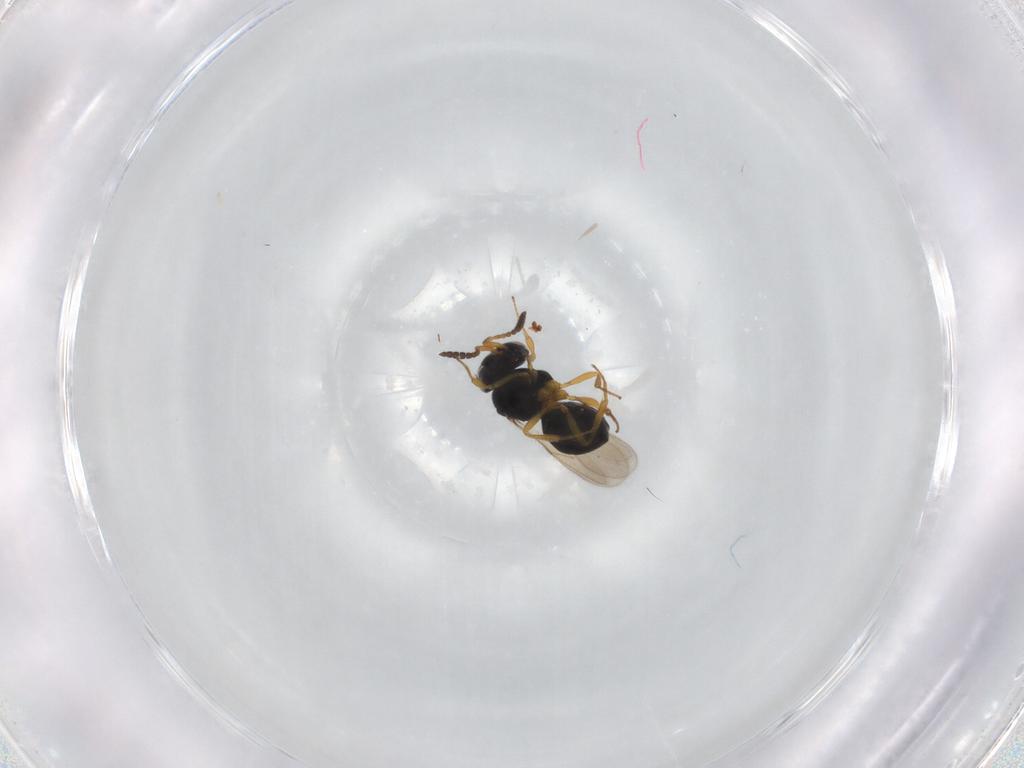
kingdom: Animalia
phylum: Arthropoda
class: Insecta
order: Hymenoptera
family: Scelionidae
